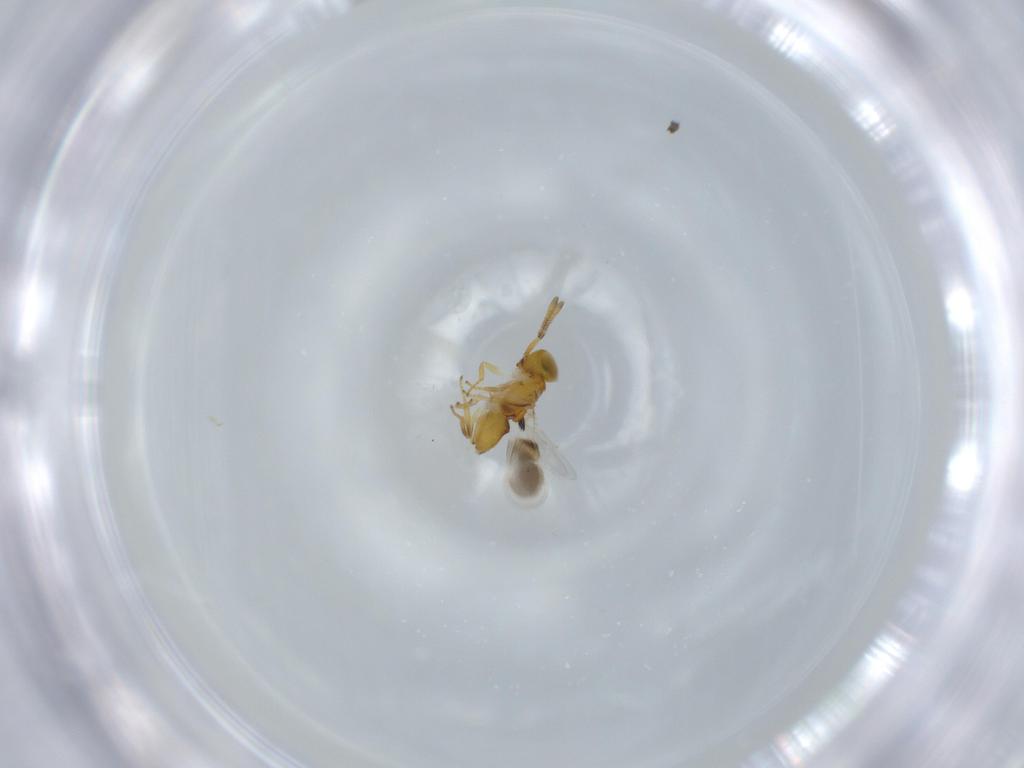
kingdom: Animalia
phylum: Arthropoda
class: Insecta
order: Hymenoptera
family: Encyrtidae
